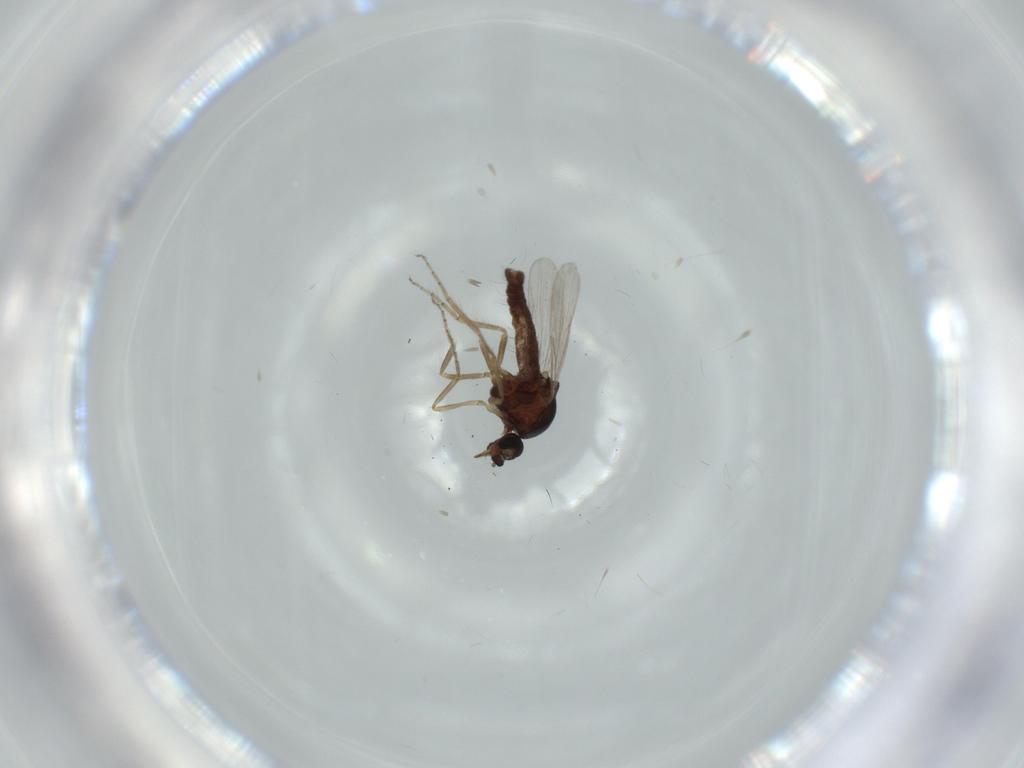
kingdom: Animalia
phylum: Arthropoda
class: Insecta
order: Diptera
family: Ceratopogonidae
